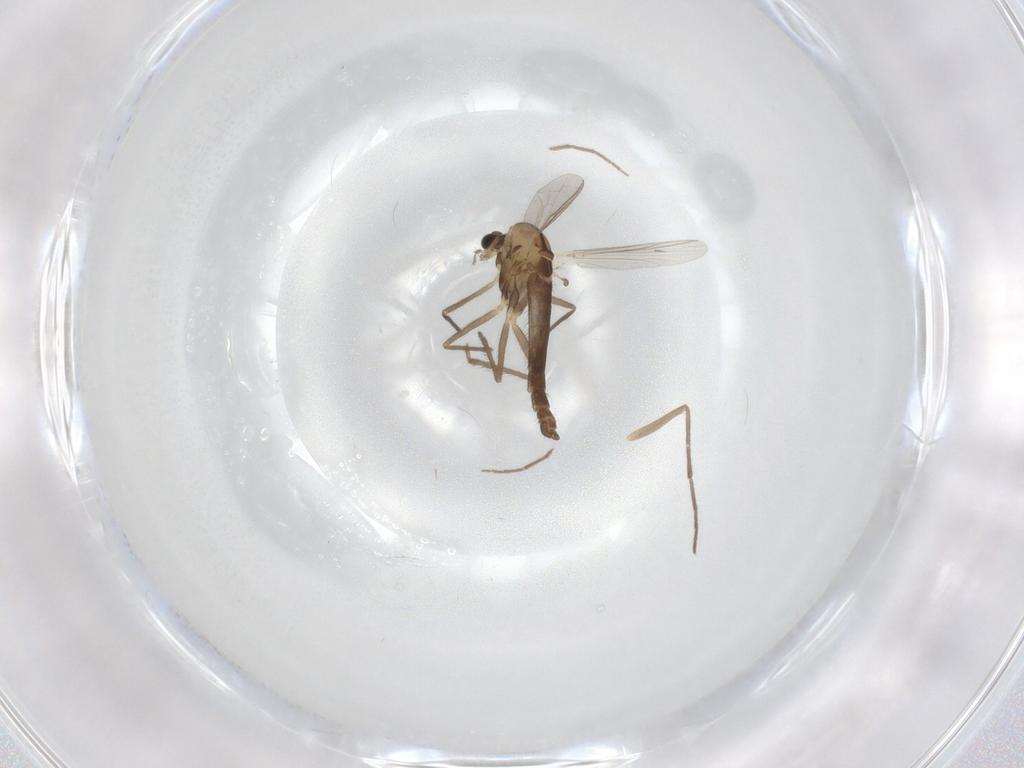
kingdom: Animalia
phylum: Arthropoda
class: Insecta
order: Diptera
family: Chironomidae
